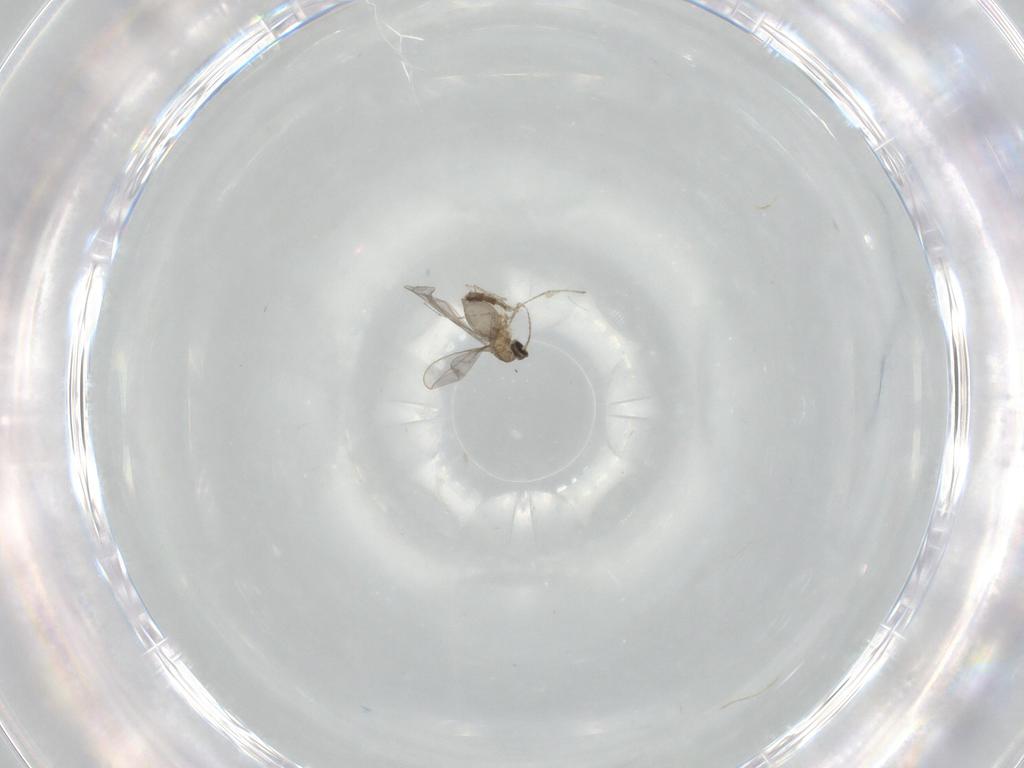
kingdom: Animalia
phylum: Arthropoda
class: Insecta
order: Diptera
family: Cecidomyiidae
